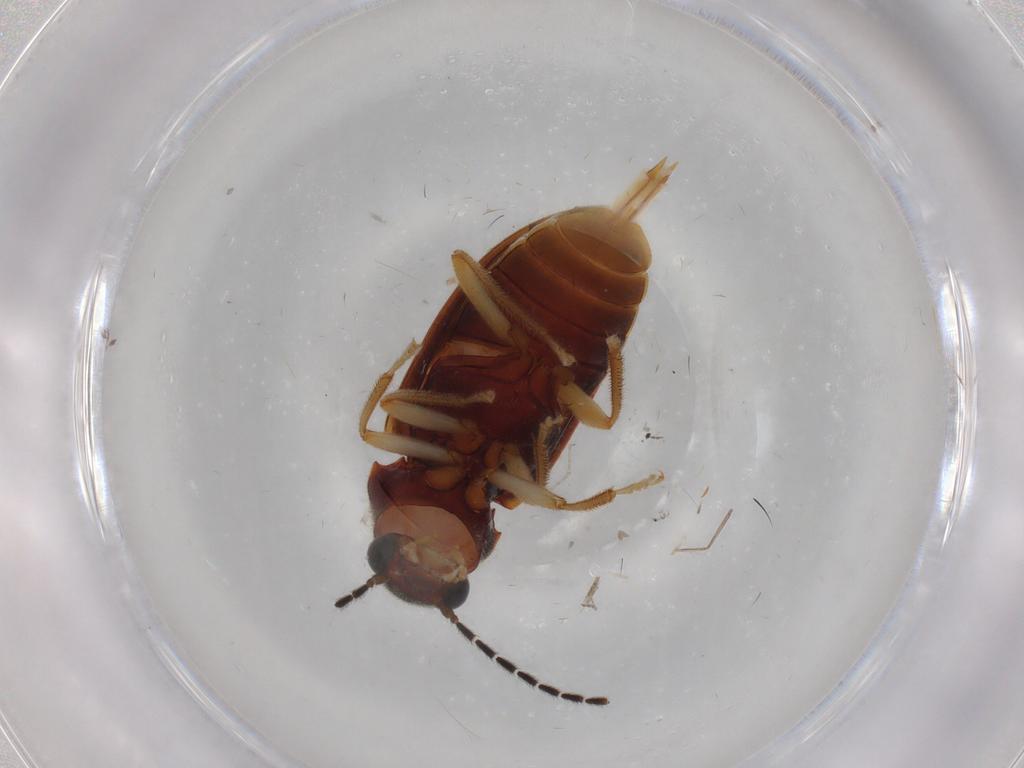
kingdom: Animalia
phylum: Arthropoda
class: Insecta
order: Coleoptera
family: Ptilodactylidae
